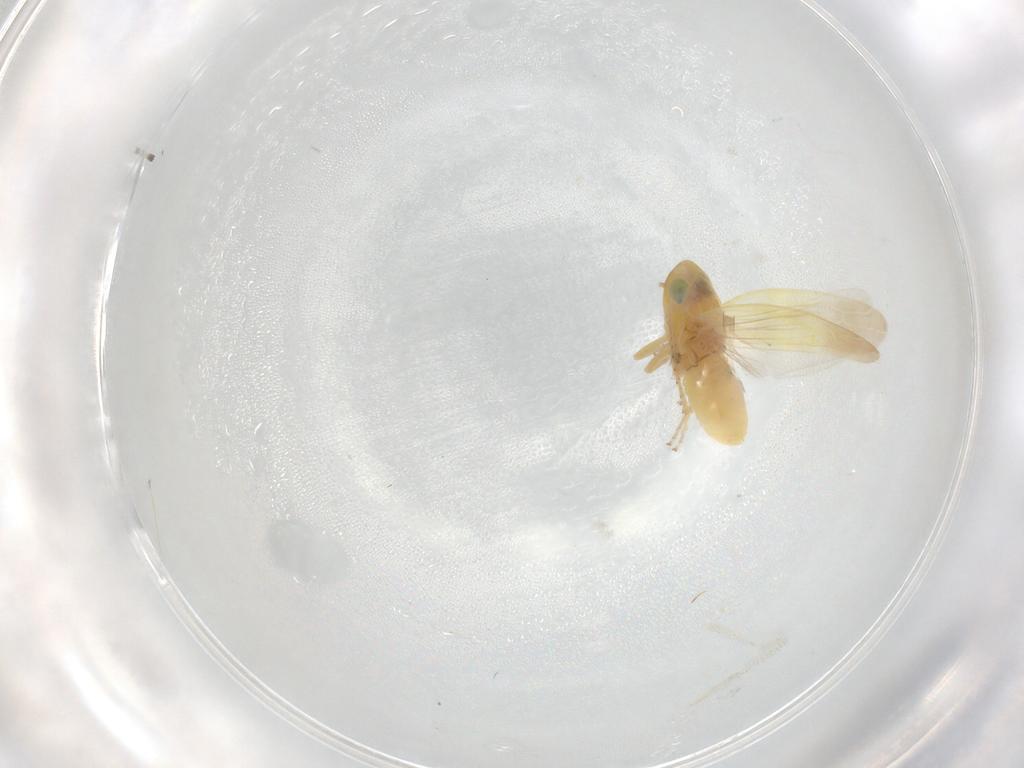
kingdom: Animalia
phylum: Arthropoda
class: Insecta
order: Hemiptera
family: Cicadellidae
